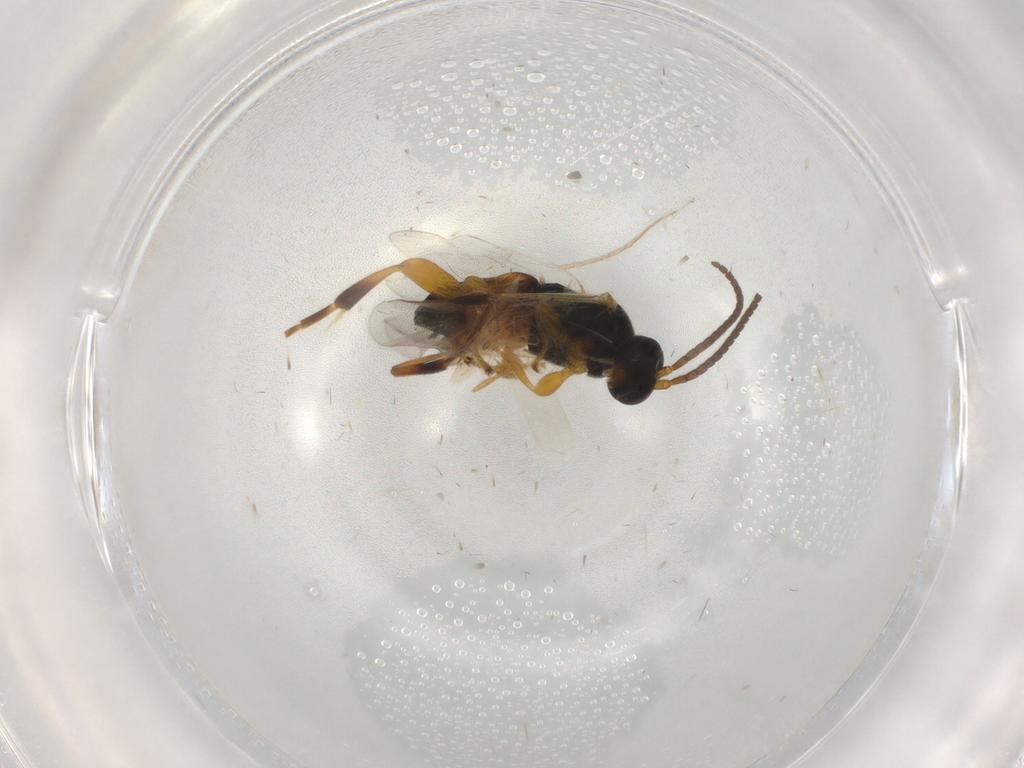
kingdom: Animalia
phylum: Arthropoda
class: Insecta
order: Hymenoptera
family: Braconidae
